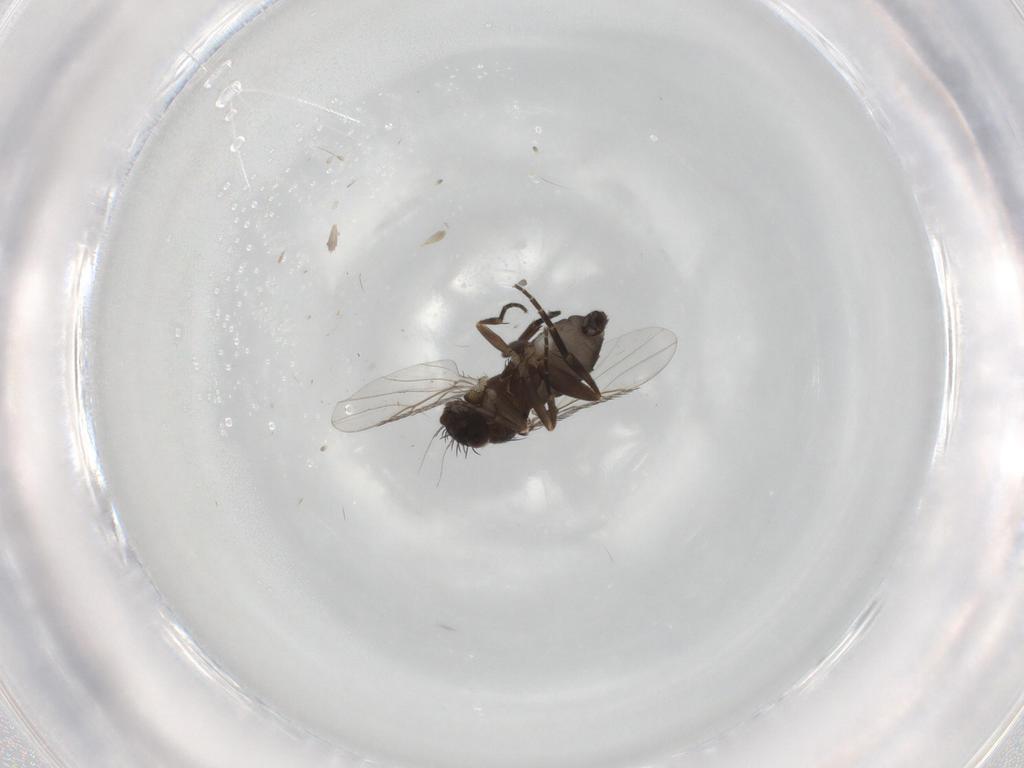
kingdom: Animalia
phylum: Arthropoda
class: Insecta
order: Diptera
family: Phoridae
